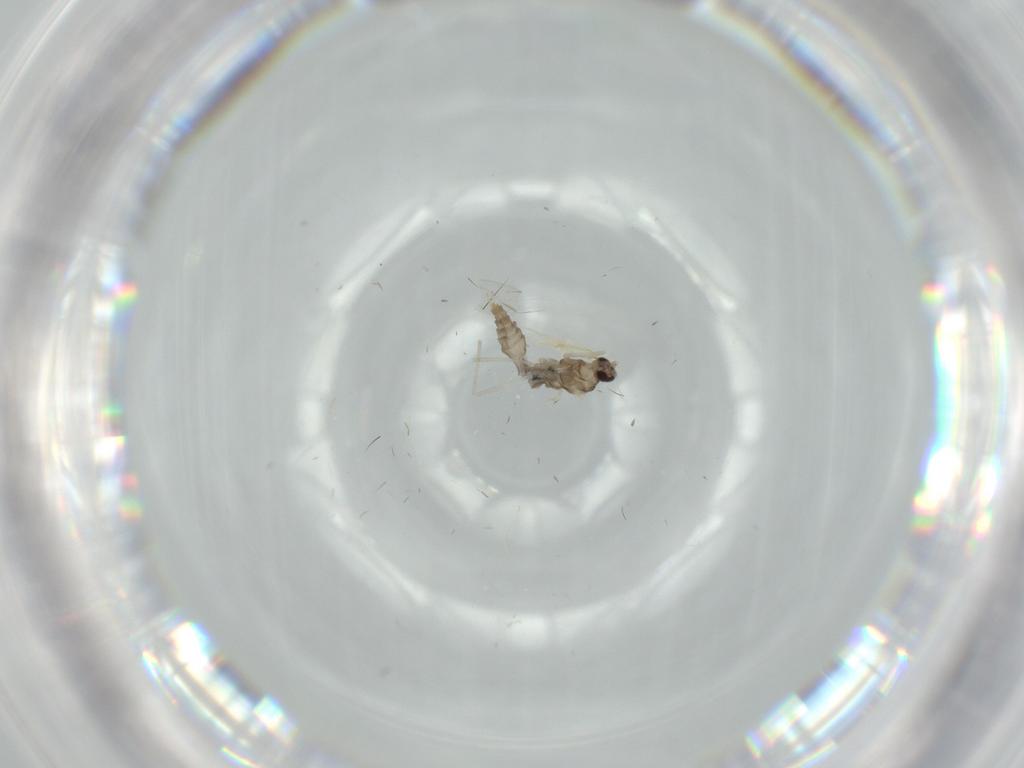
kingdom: Animalia
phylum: Arthropoda
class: Insecta
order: Diptera
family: Cecidomyiidae
